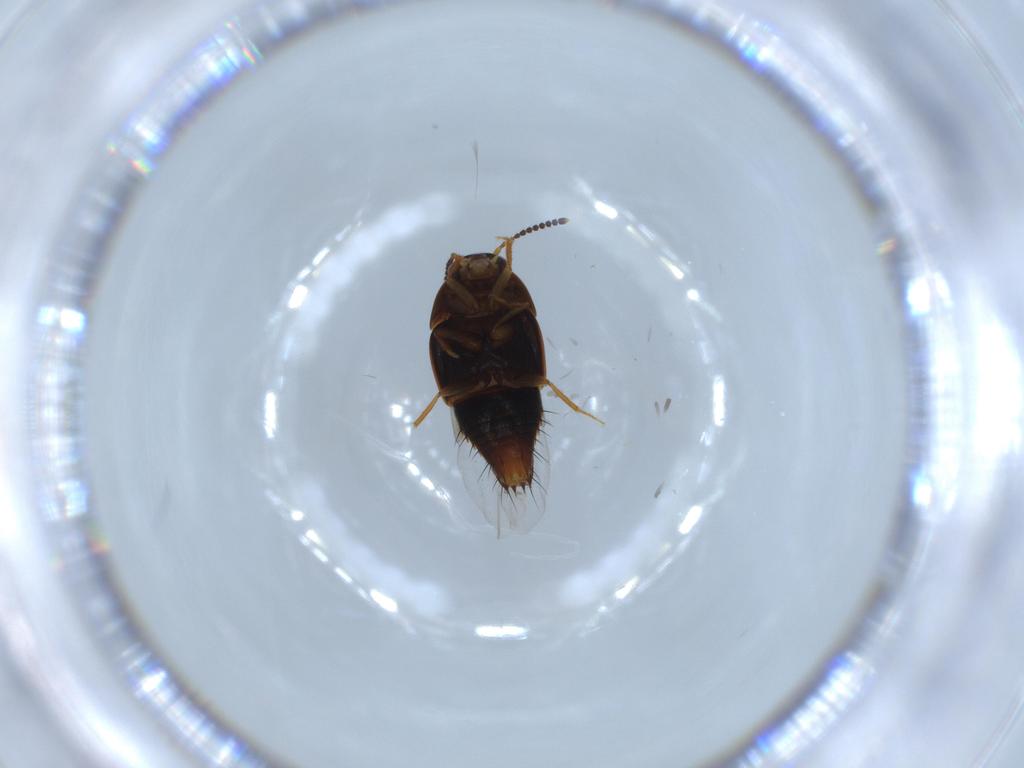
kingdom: Animalia
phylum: Arthropoda
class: Insecta
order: Coleoptera
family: Staphylinidae
